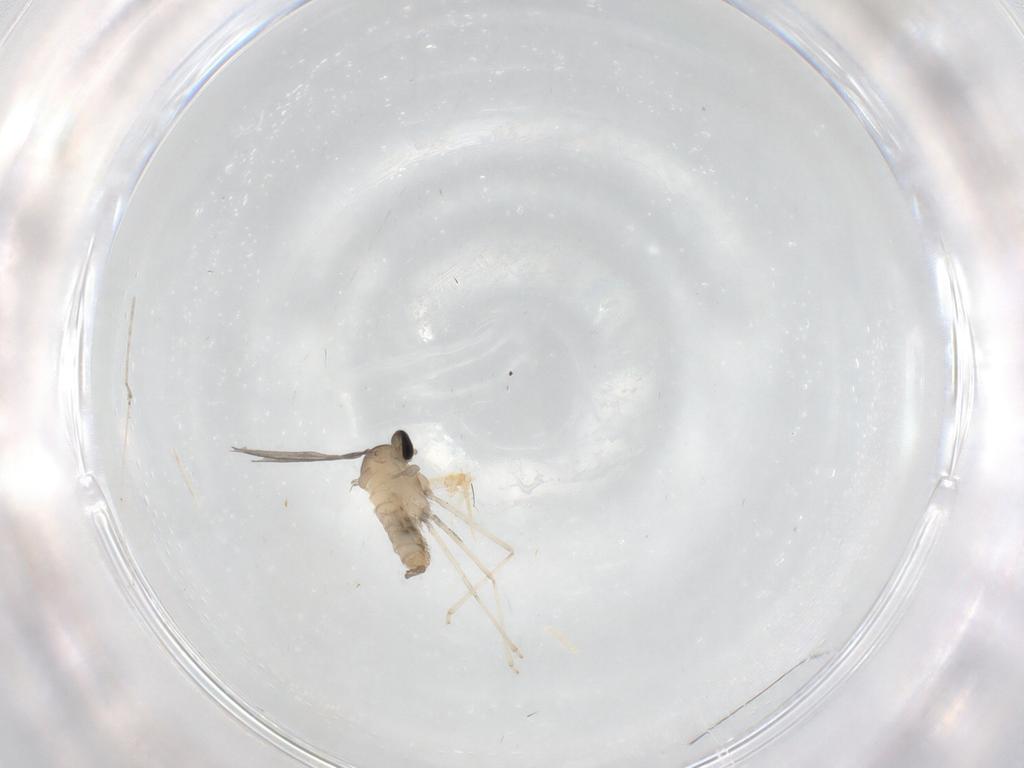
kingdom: Animalia
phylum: Arthropoda
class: Insecta
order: Diptera
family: Cecidomyiidae
